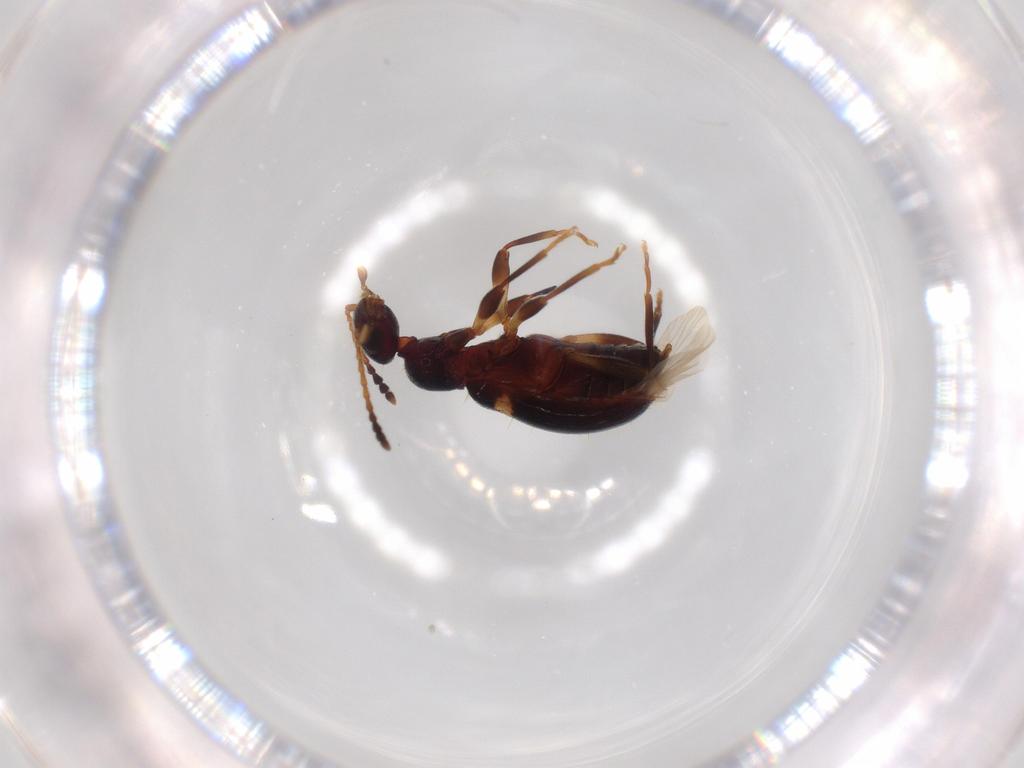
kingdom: Animalia
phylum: Arthropoda
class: Insecta
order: Coleoptera
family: Anthicidae
